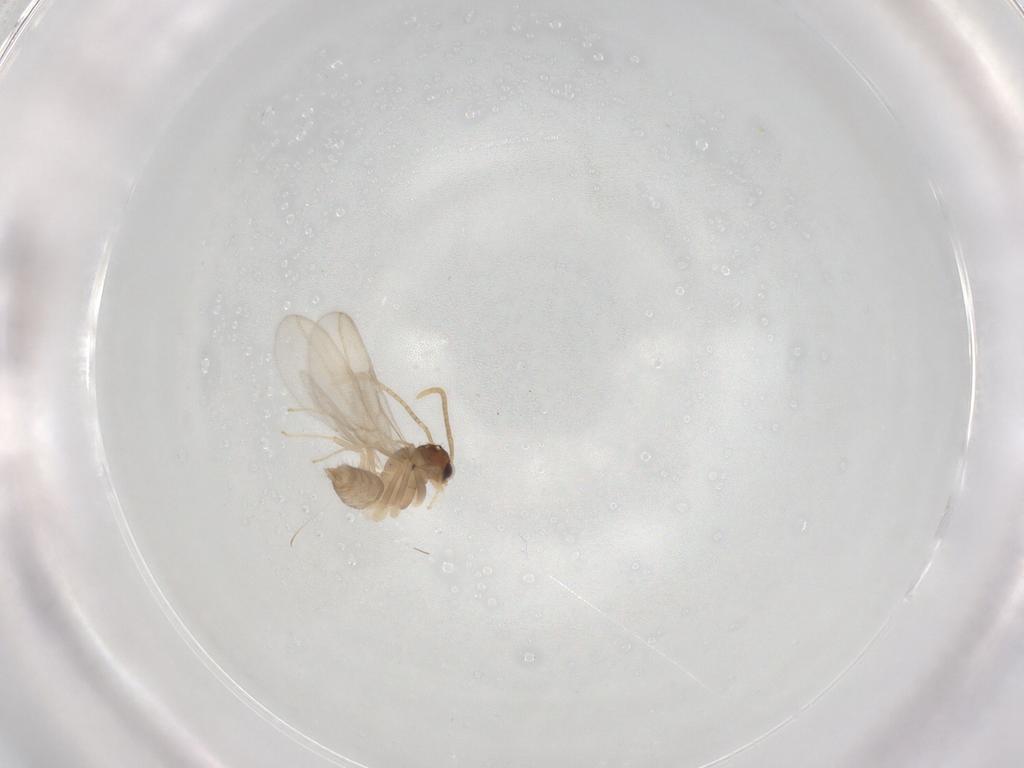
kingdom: Animalia
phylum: Arthropoda
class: Insecta
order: Hymenoptera
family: Formicidae
